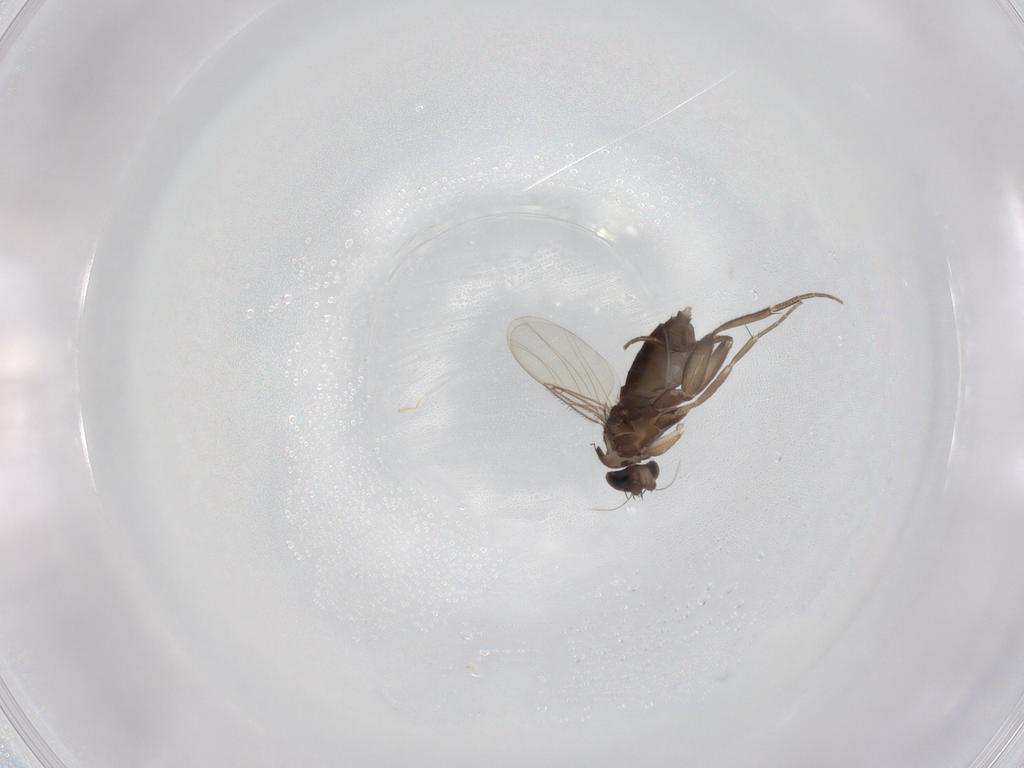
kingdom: Animalia
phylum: Arthropoda
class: Insecta
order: Diptera
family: Phoridae
